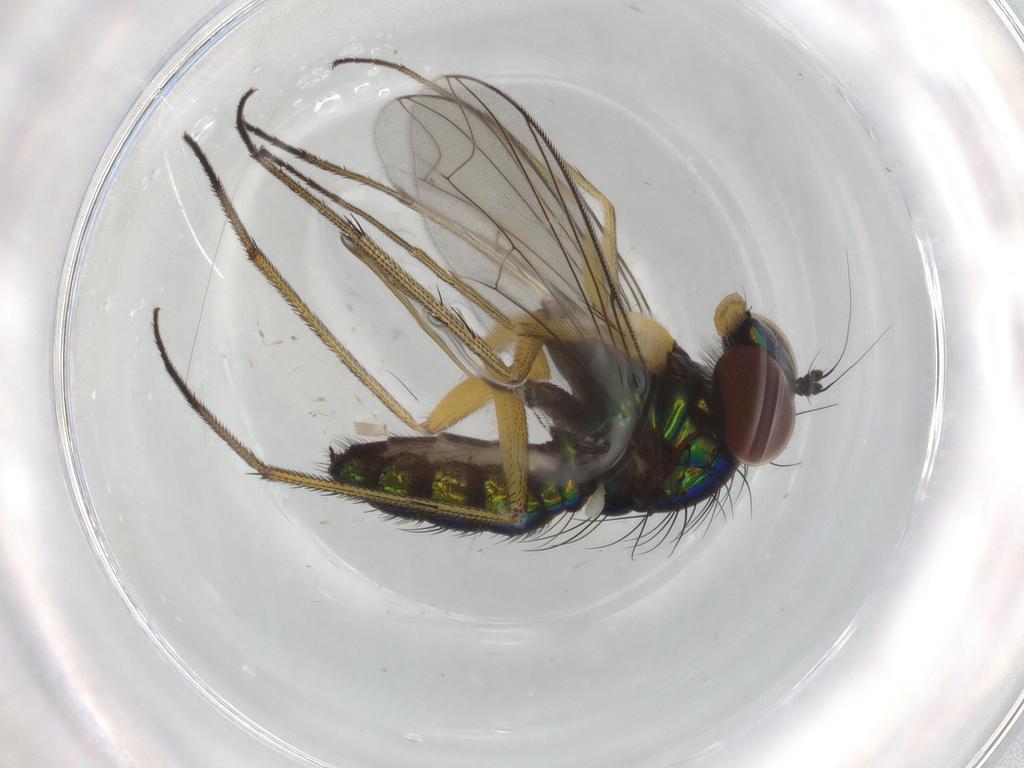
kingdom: Animalia
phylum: Arthropoda
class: Insecta
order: Diptera
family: Dolichopodidae
